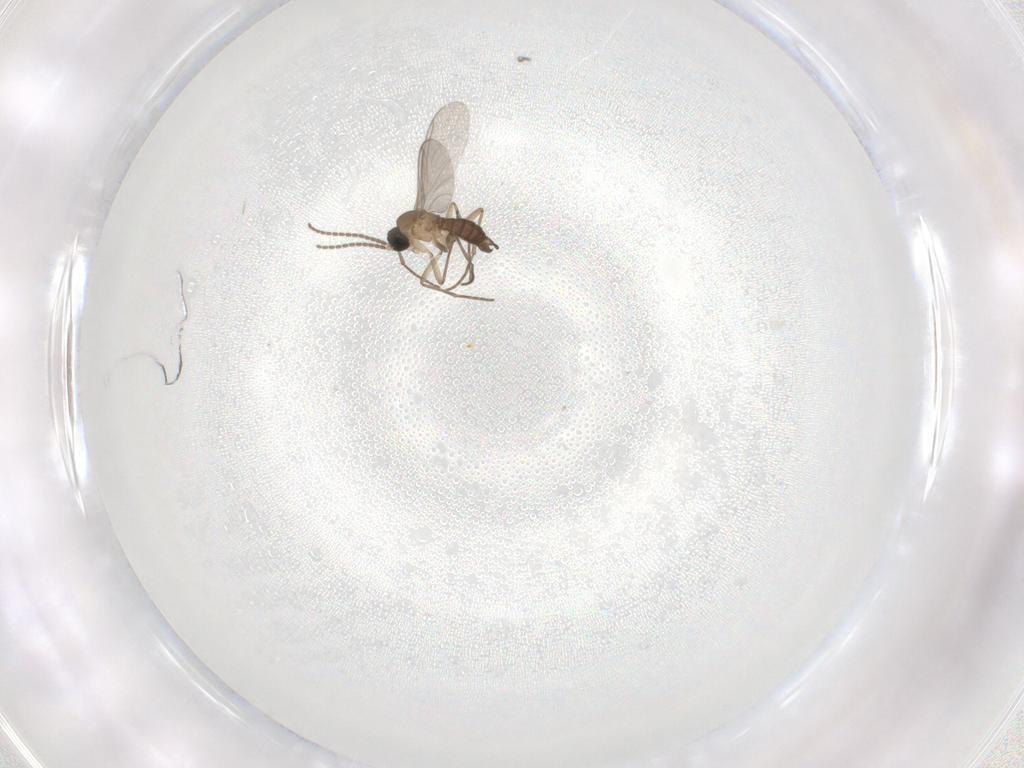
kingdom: Animalia
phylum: Arthropoda
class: Insecta
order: Diptera
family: Sciaridae
